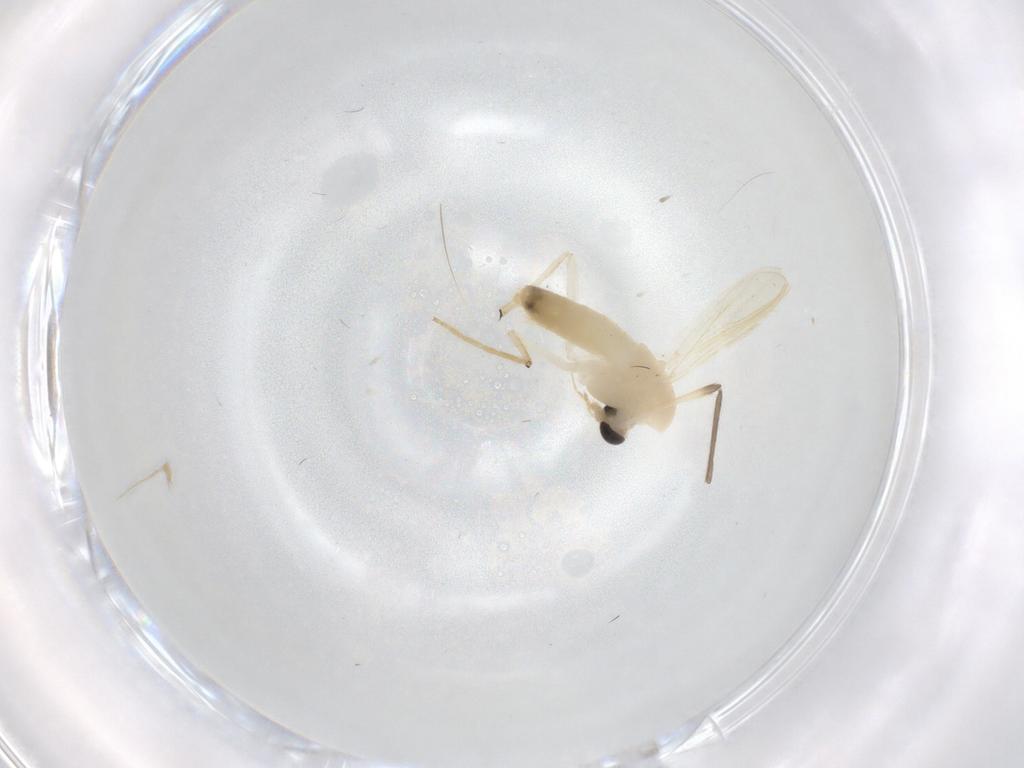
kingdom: Animalia
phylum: Arthropoda
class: Insecta
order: Diptera
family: Chironomidae
